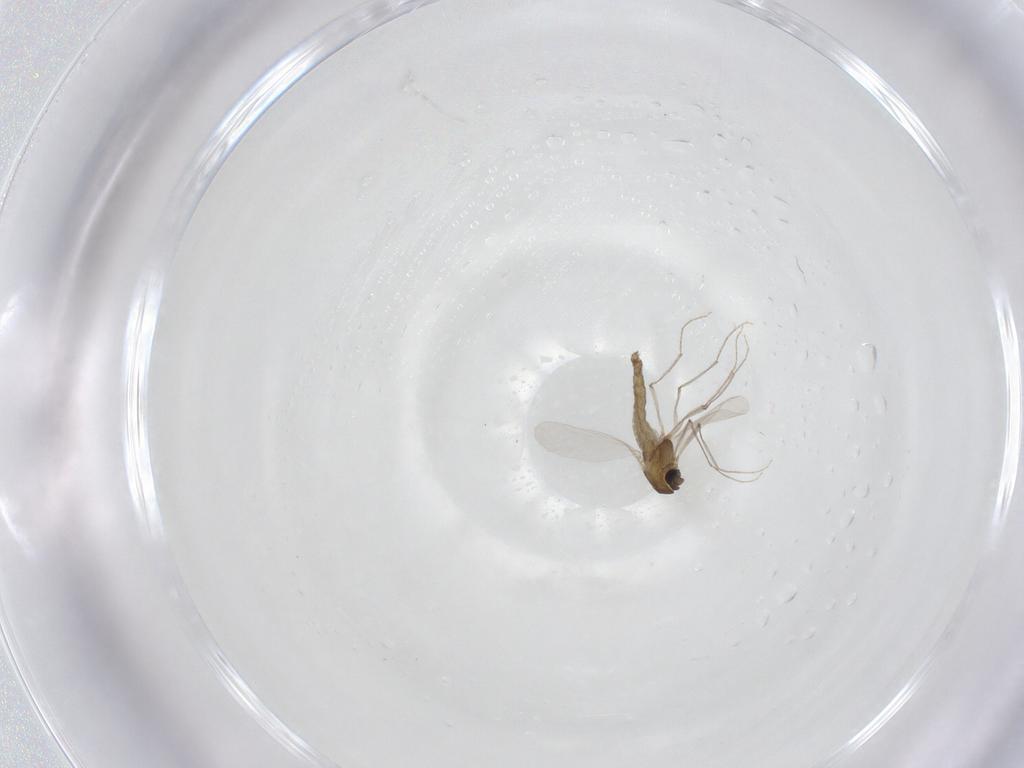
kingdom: Animalia
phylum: Arthropoda
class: Insecta
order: Diptera
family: Chironomidae
